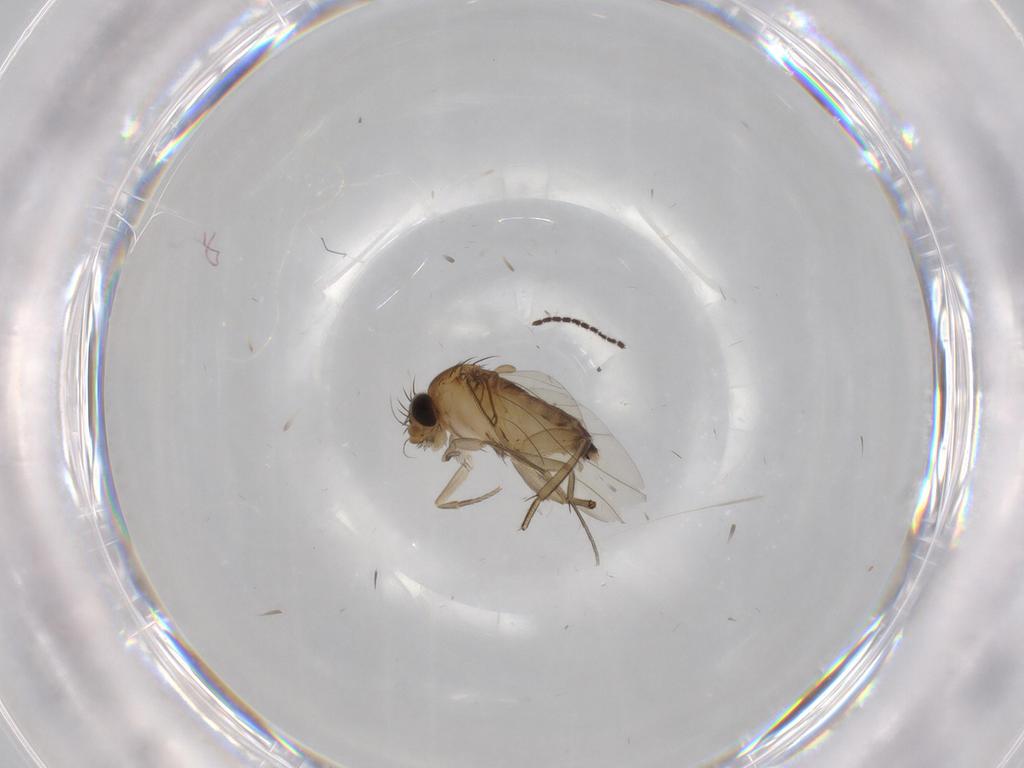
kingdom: Animalia
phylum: Arthropoda
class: Insecta
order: Diptera
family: Phoridae
